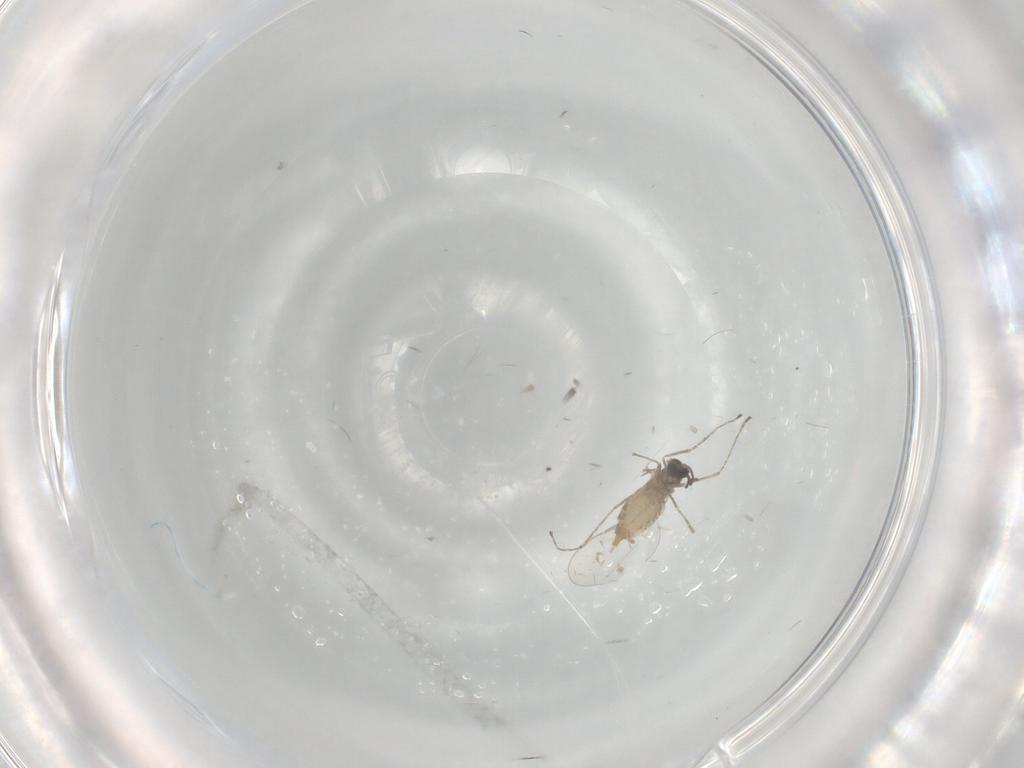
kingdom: Animalia
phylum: Arthropoda
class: Insecta
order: Diptera
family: Cecidomyiidae
